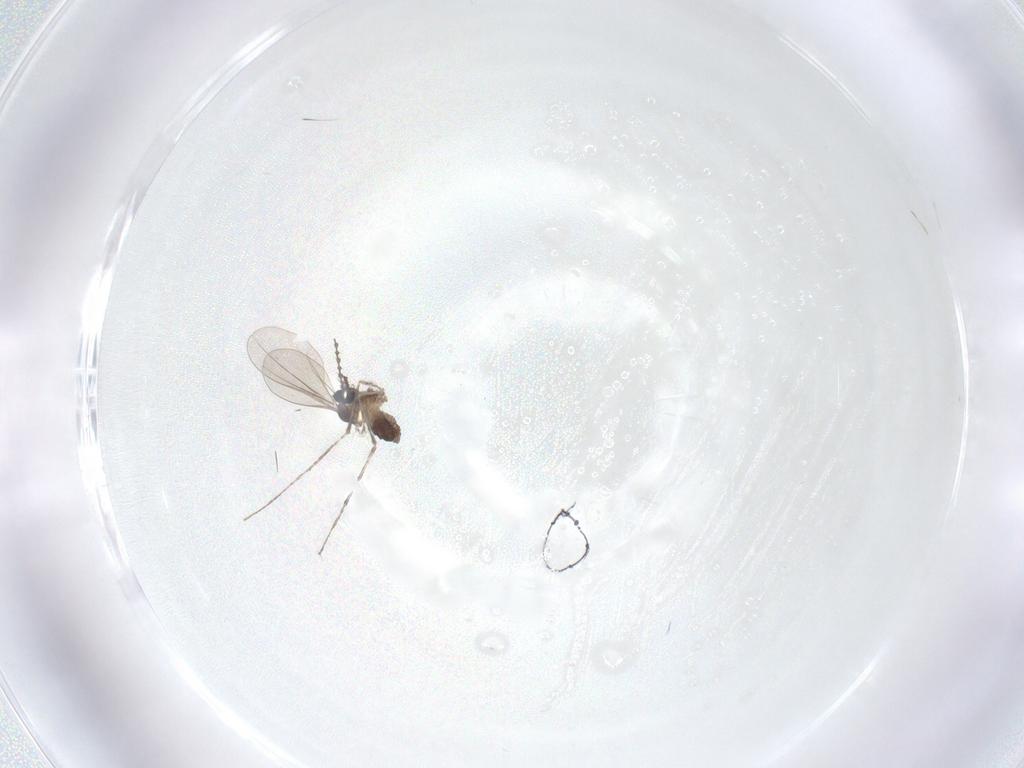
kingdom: Animalia
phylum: Arthropoda
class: Insecta
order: Diptera
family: Cecidomyiidae
